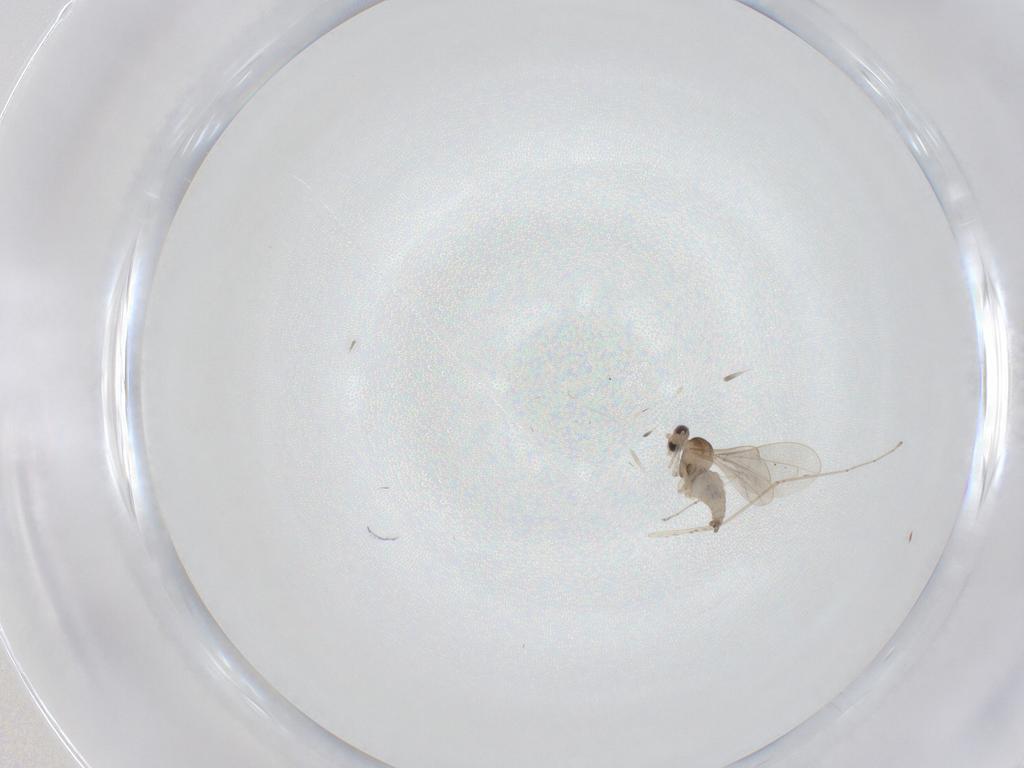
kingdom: Animalia
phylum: Arthropoda
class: Insecta
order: Diptera
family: Cecidomyiidae
